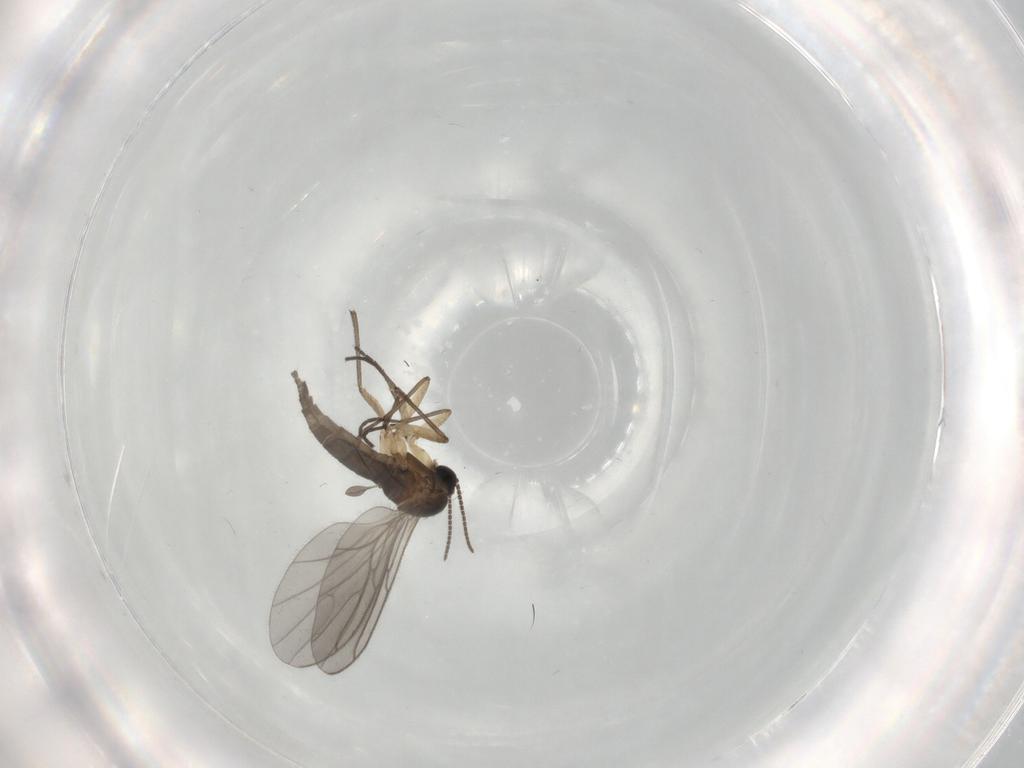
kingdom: Animalia
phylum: Arthropoda
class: Insecta
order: Diptera
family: Sciaridae
